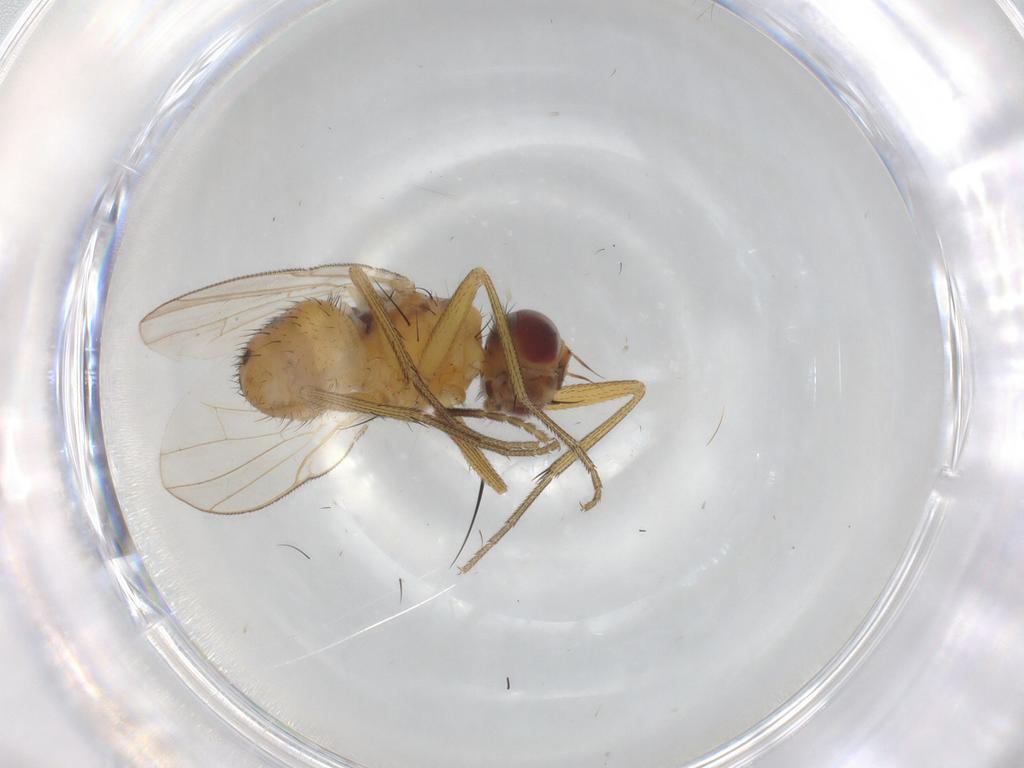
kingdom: Animalia
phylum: Arthropoda
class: Insecta
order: Diptera
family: Muscidae
